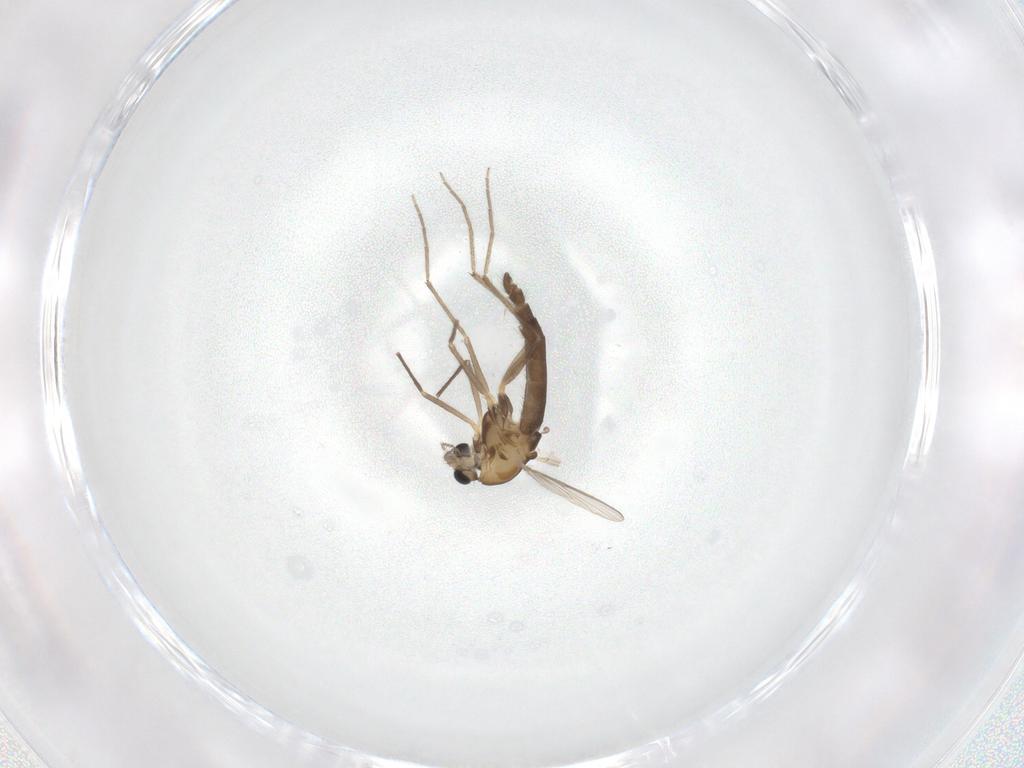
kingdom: Animalia
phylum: Arthropoda
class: Insecta
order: Diptera
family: Chironomidae
